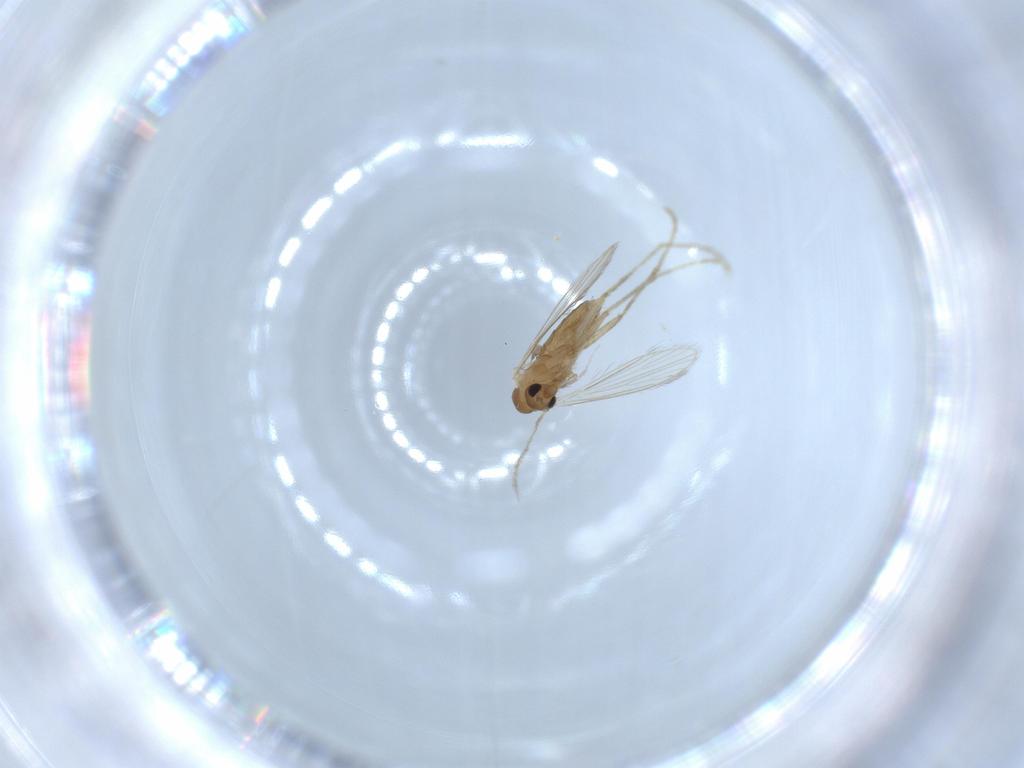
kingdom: Animalia
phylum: Arthropoda
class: Insecta
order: Diptera
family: Psychodidae
